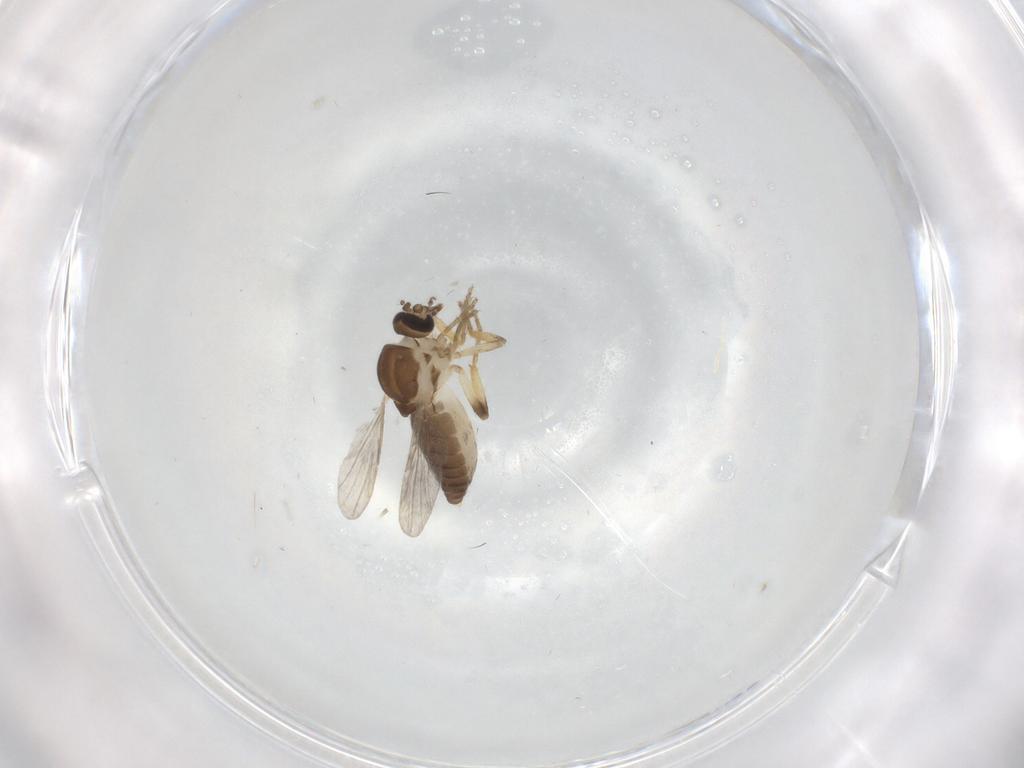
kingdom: Animalia
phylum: Arthropoda
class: Insecta
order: Diptera
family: Ceratopogonidae
